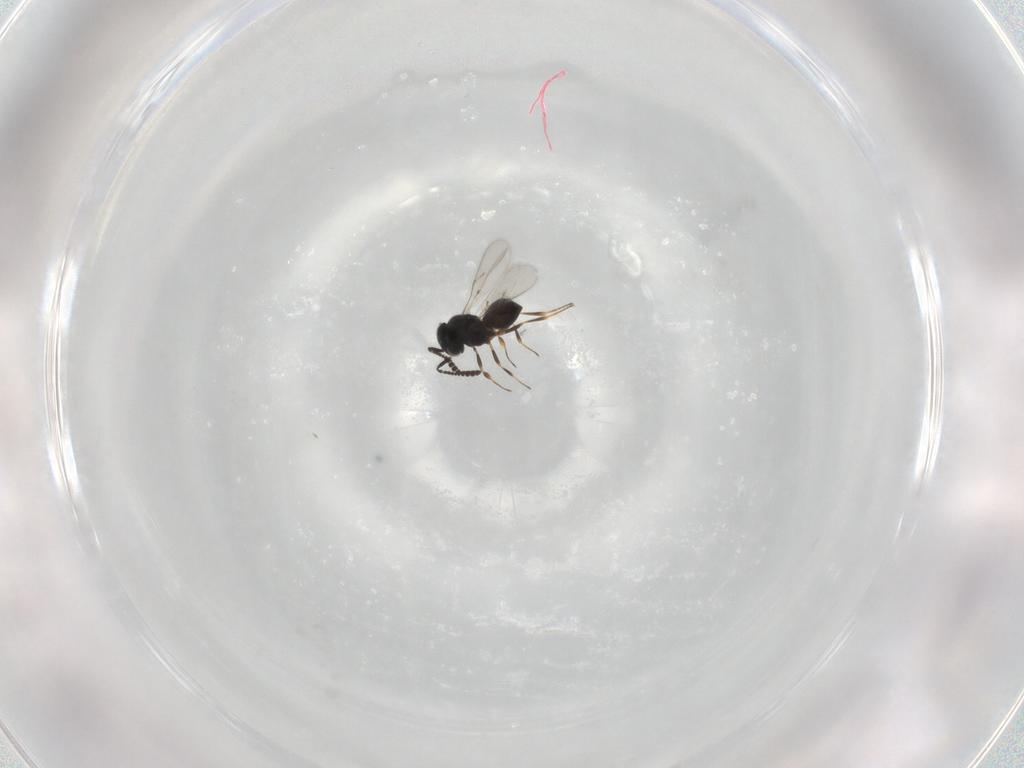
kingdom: Animalia
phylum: Arthropoda
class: Insecta
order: Hymenoptera
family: Scelionidae
